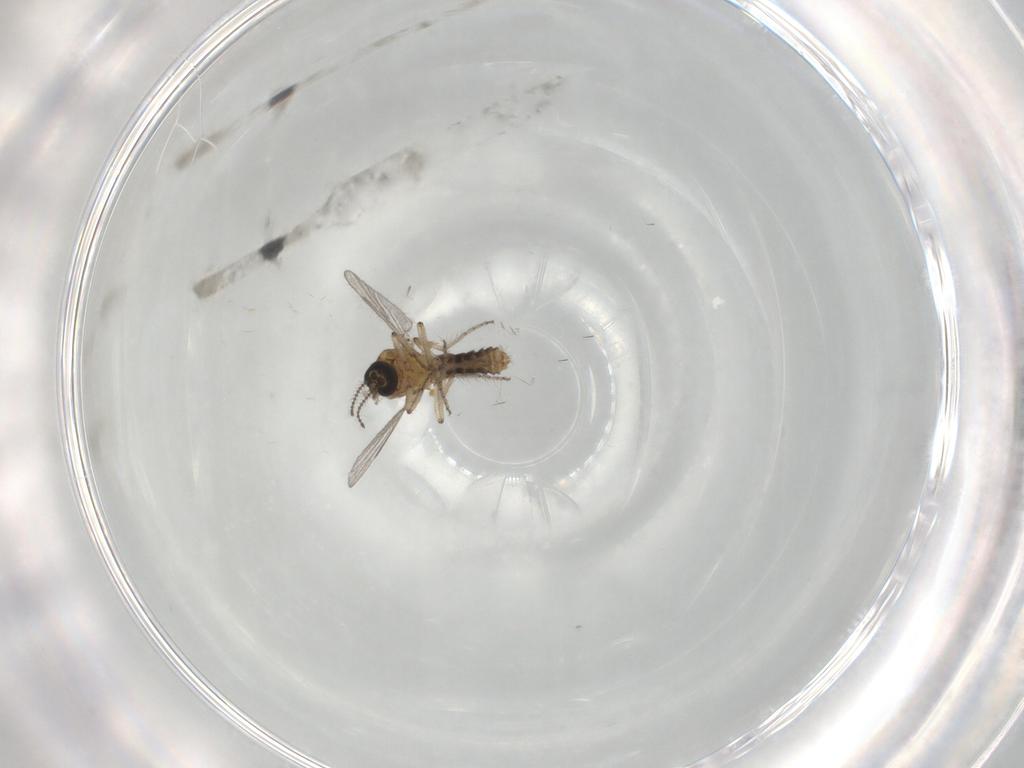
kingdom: Animalia
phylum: Arthropoda
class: Insecta
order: Diptera
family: Ceratopogonidae
